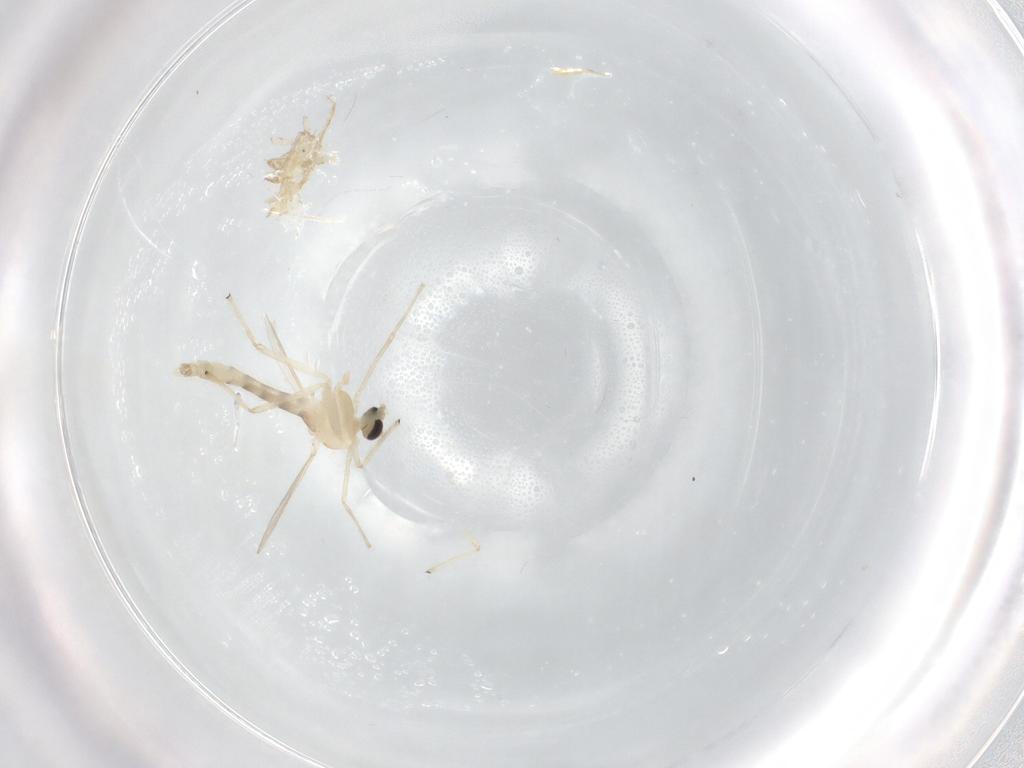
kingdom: Animalia
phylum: Arthropoda
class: Insecta
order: Diptera
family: Chironomidae
